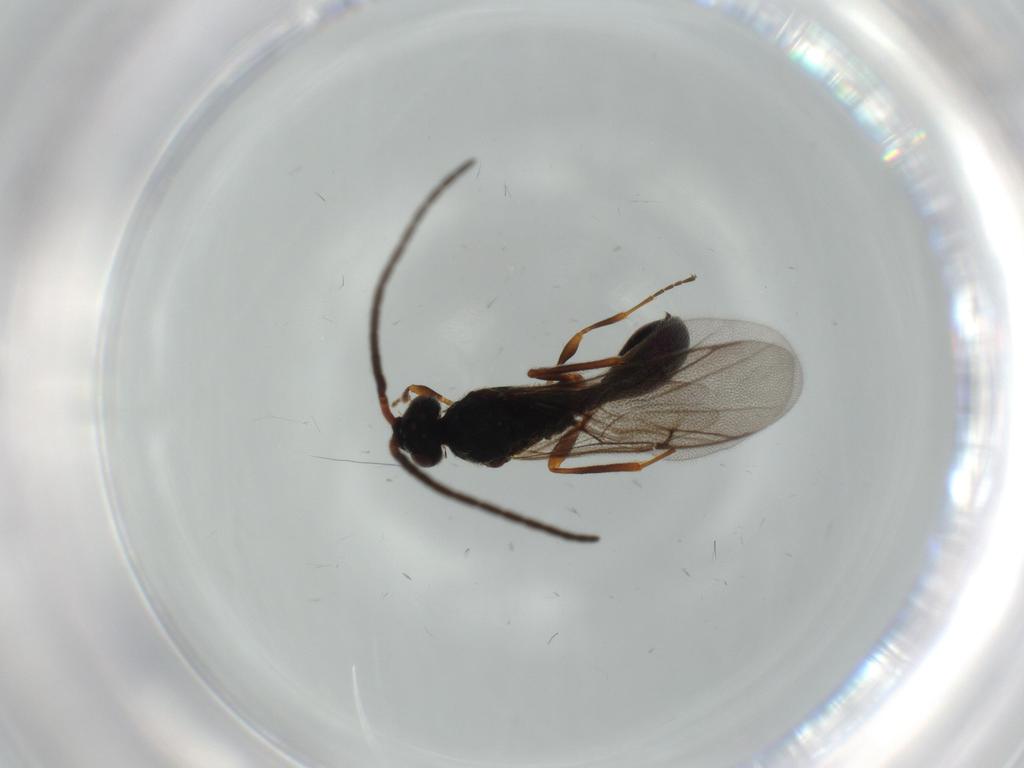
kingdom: Animalia
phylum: Arthropoda
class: Insecta
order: Hymenoptera
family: Diapriidae
